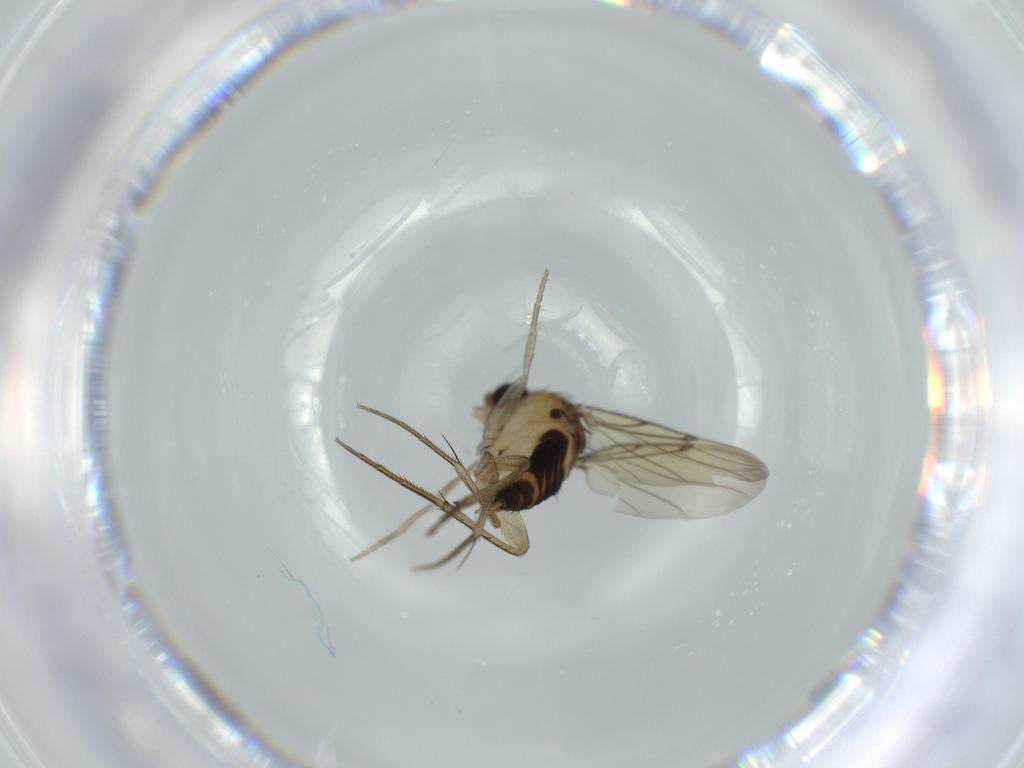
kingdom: Animalia
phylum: Arthropoda
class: Insecta
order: Diptera
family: Phoridae
